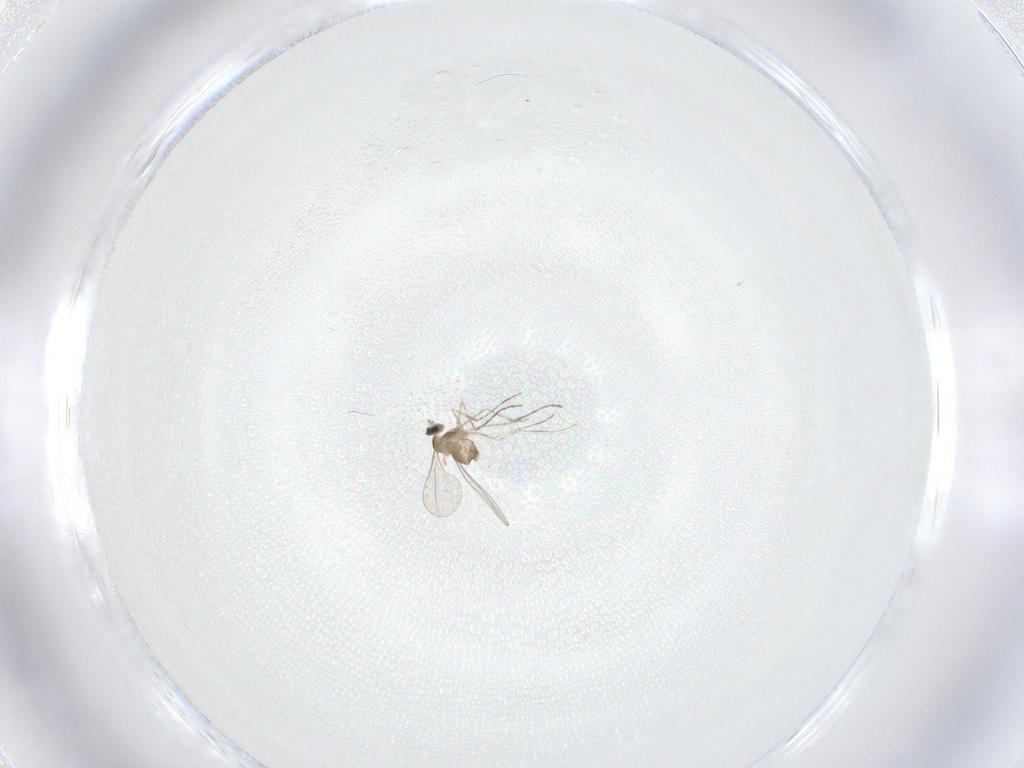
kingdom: Animalia
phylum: Arthropoda
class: Insecta
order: Diptera
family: Cecidomyiidae
